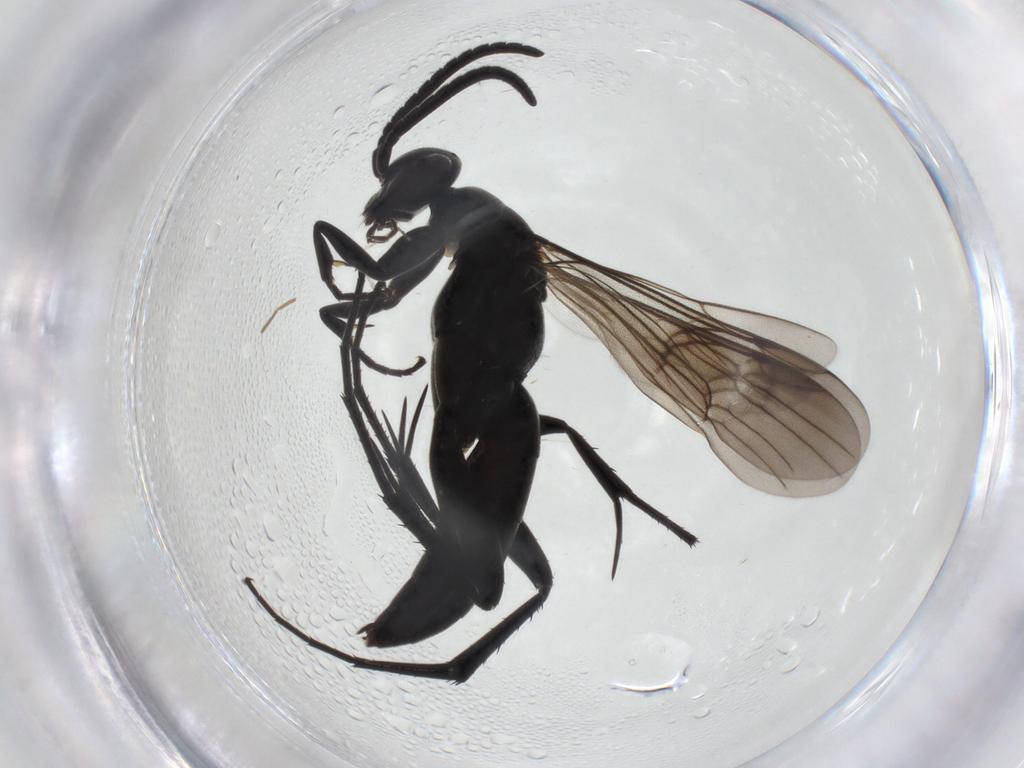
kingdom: Animalia
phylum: Arthropoda
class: Insecta
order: Hymenoptera
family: Pompilidae
